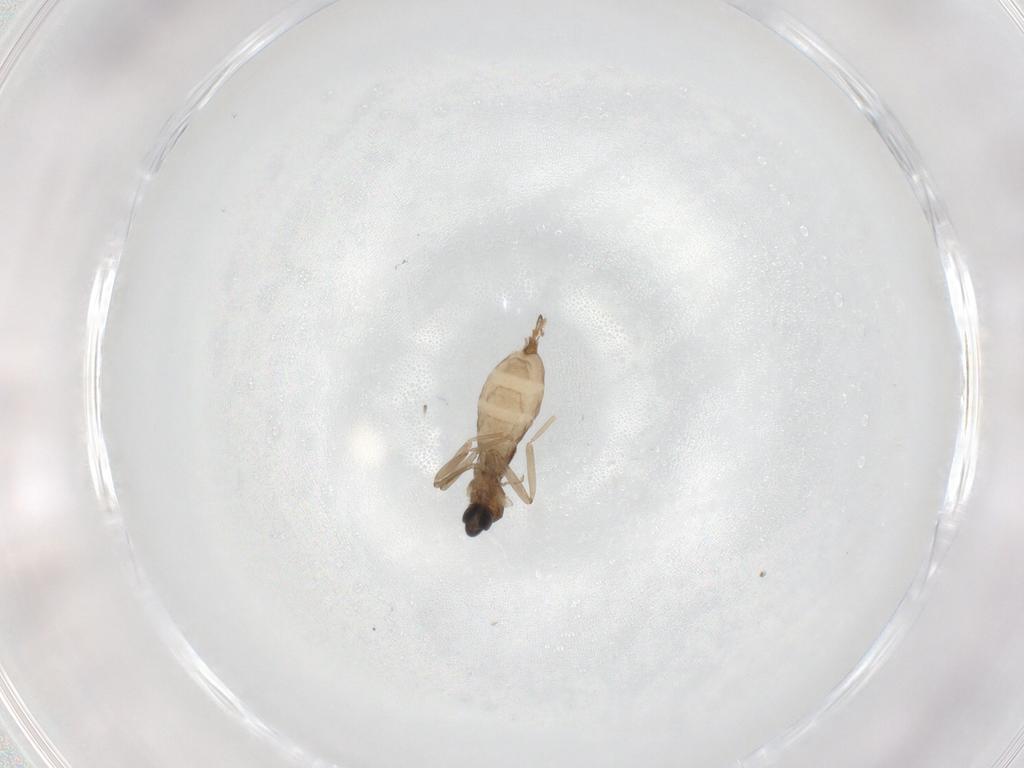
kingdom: Animalia
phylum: Arthropoda
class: Insecta
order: Diptera
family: Cecidomyiidae
